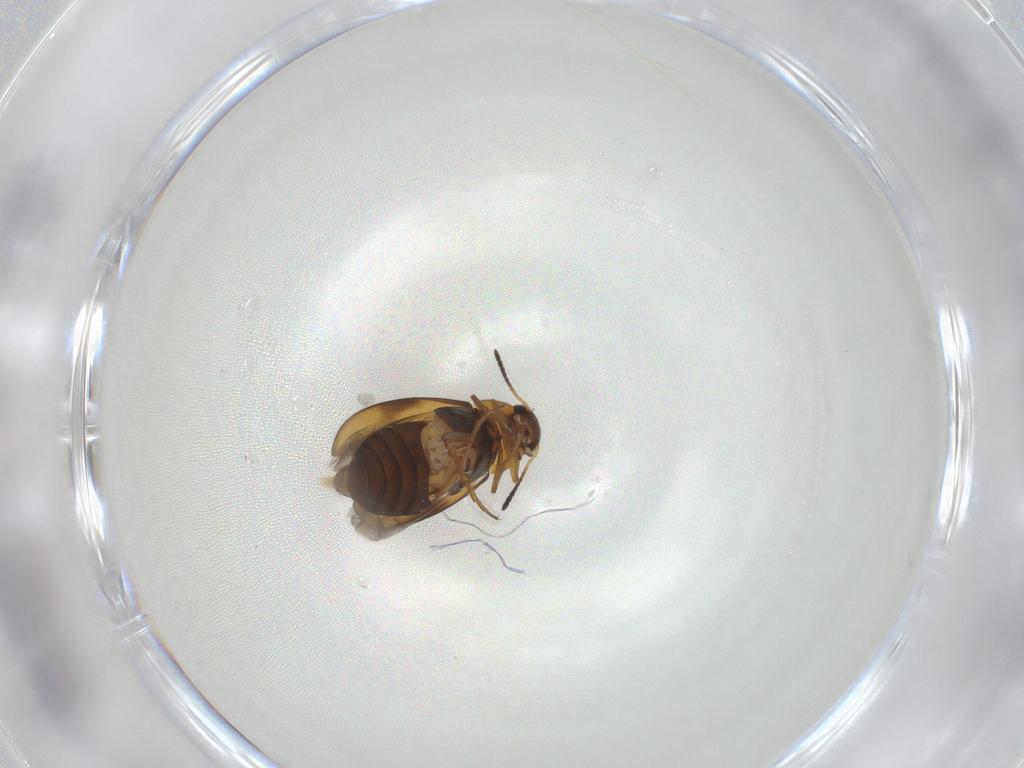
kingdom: Animalia
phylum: Arthropoda
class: Insecta
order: Coleoptera
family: Scraptiidae
